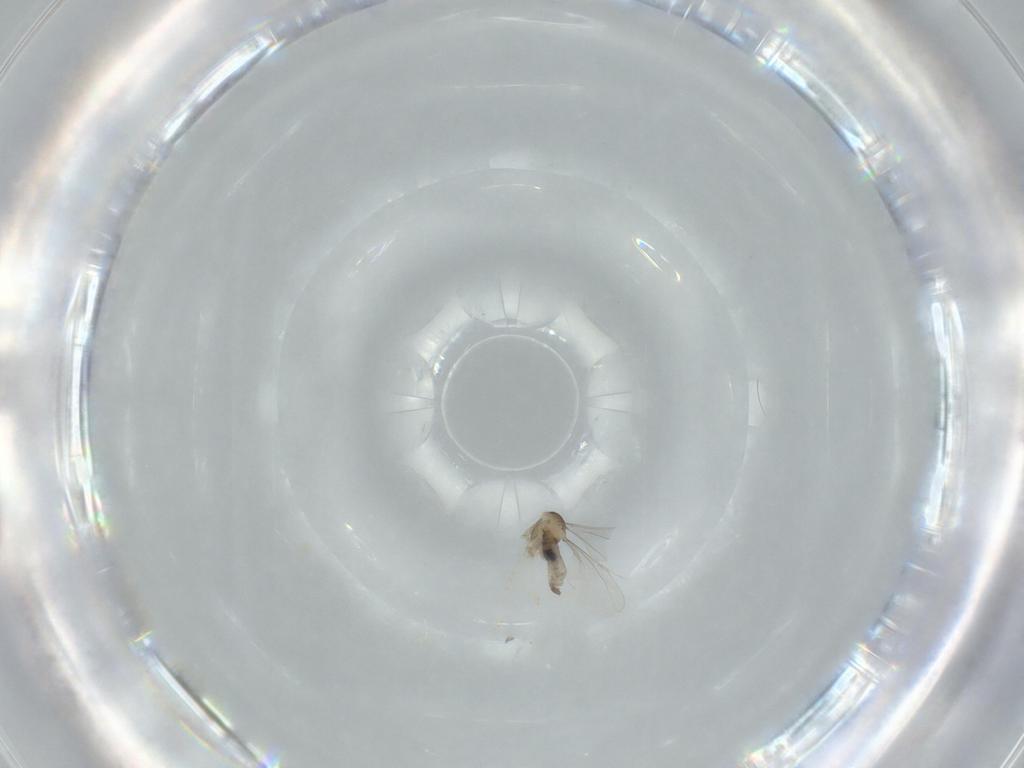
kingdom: Animalia
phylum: Arthropoda
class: Insecta
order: Diptera
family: Cecidomyiidae
